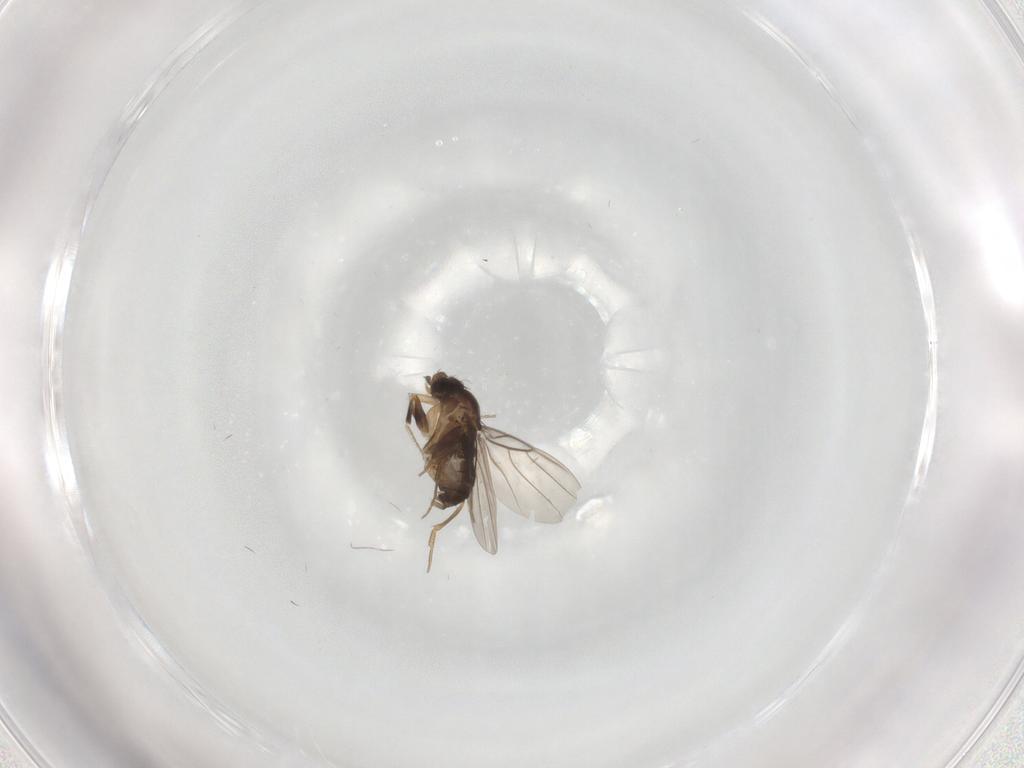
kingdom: Animalia
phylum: Arthropoda
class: Insecta
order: Diptera
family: Phoridae
